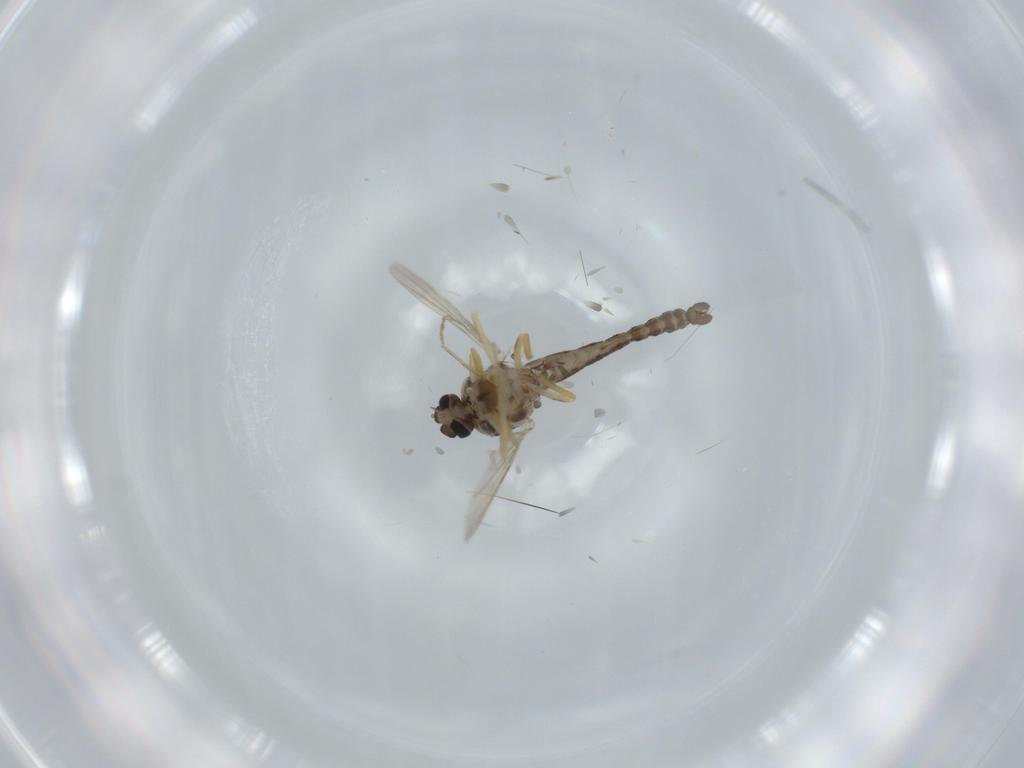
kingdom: Animalia
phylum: Arthropoda
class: Insecta
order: Diptera
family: Ceratopogonidae
